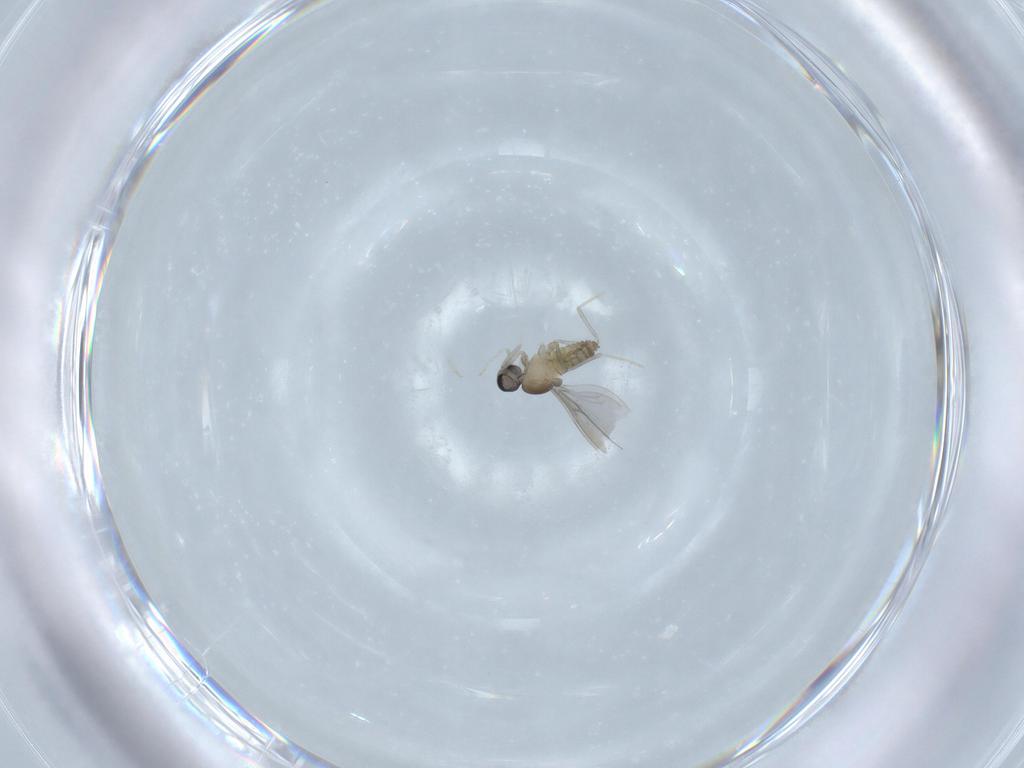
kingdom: Animalia
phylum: Arthropoda
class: Insecta
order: Diptera
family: Cecidomyiidae
